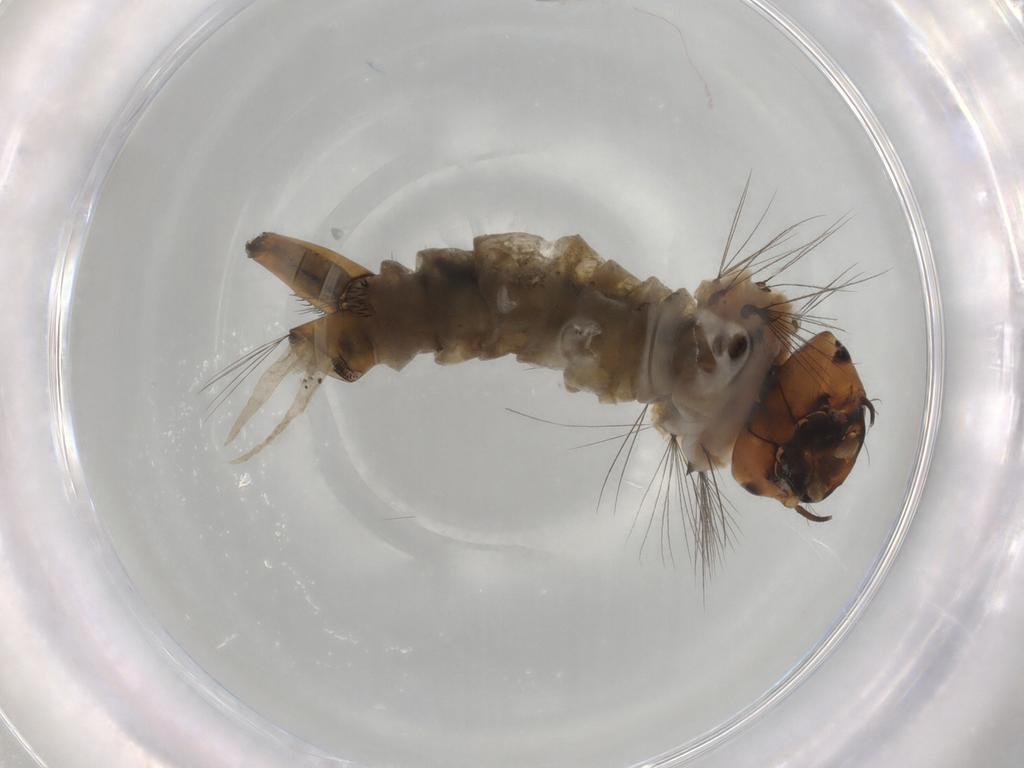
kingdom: Animalia
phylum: Arthropoda
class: Insecta
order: Diptera
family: Culicidae
